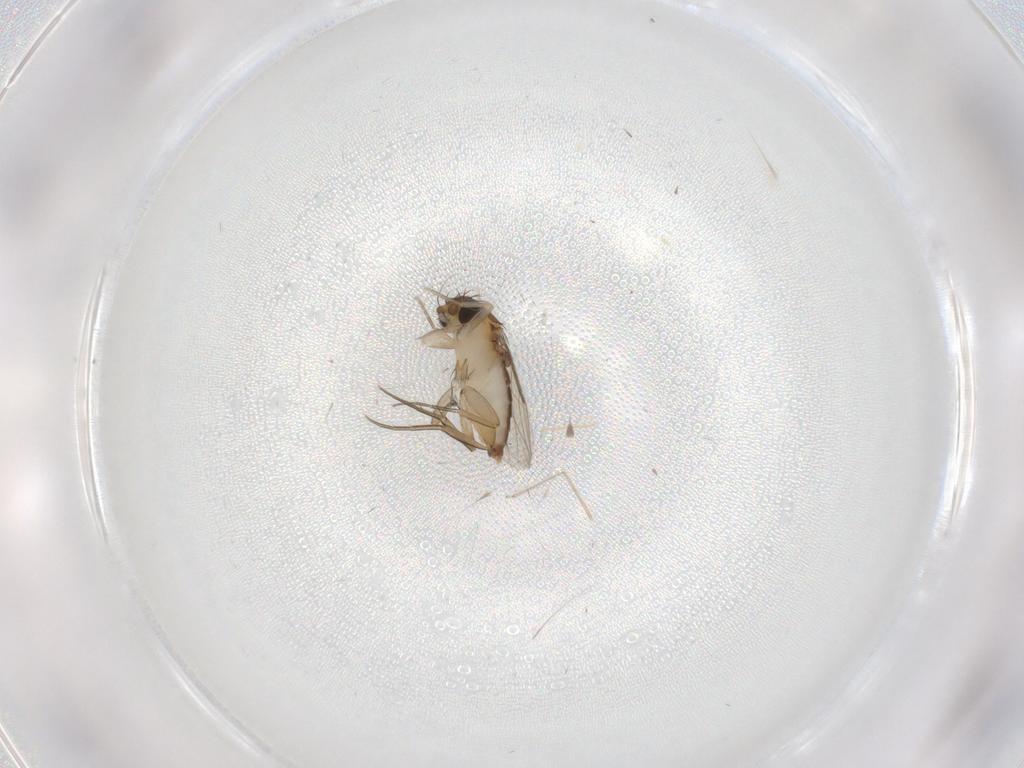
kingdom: Animalia
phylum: Arthropoda
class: Insecta
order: Diptera
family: Phoridae
